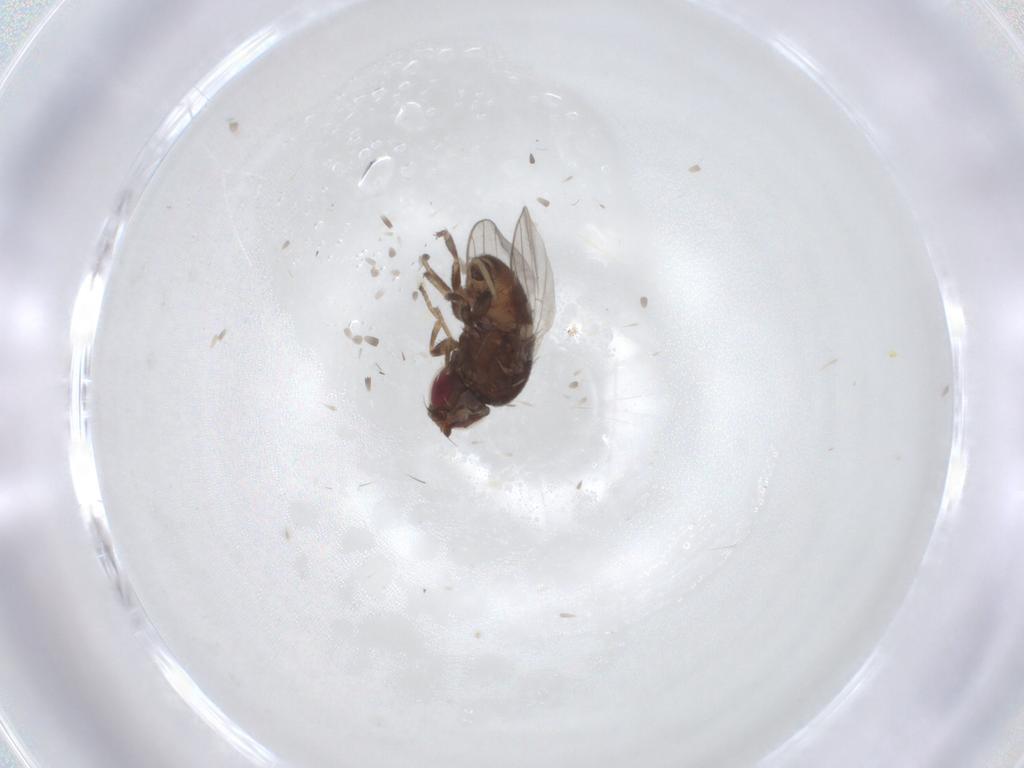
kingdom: Animalia
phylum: Arthropoda
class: Insecta
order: Diptera
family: Chloropidae
